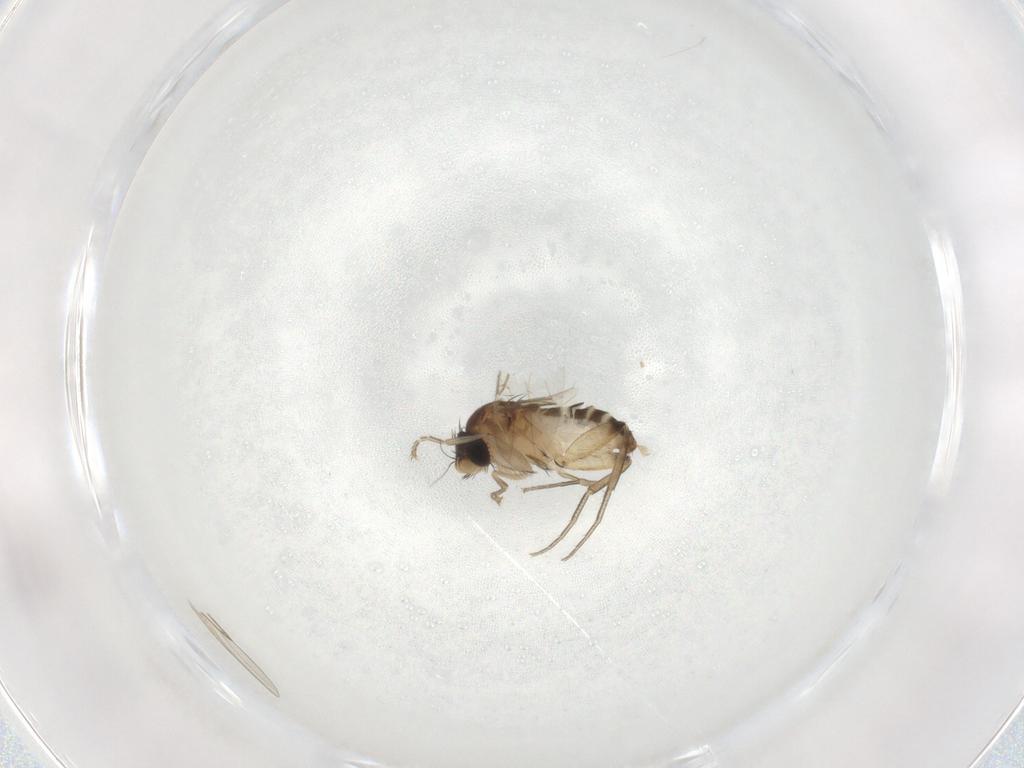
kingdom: Animalia
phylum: Arthropoda
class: Insecta
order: Diptera
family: Phoridae
